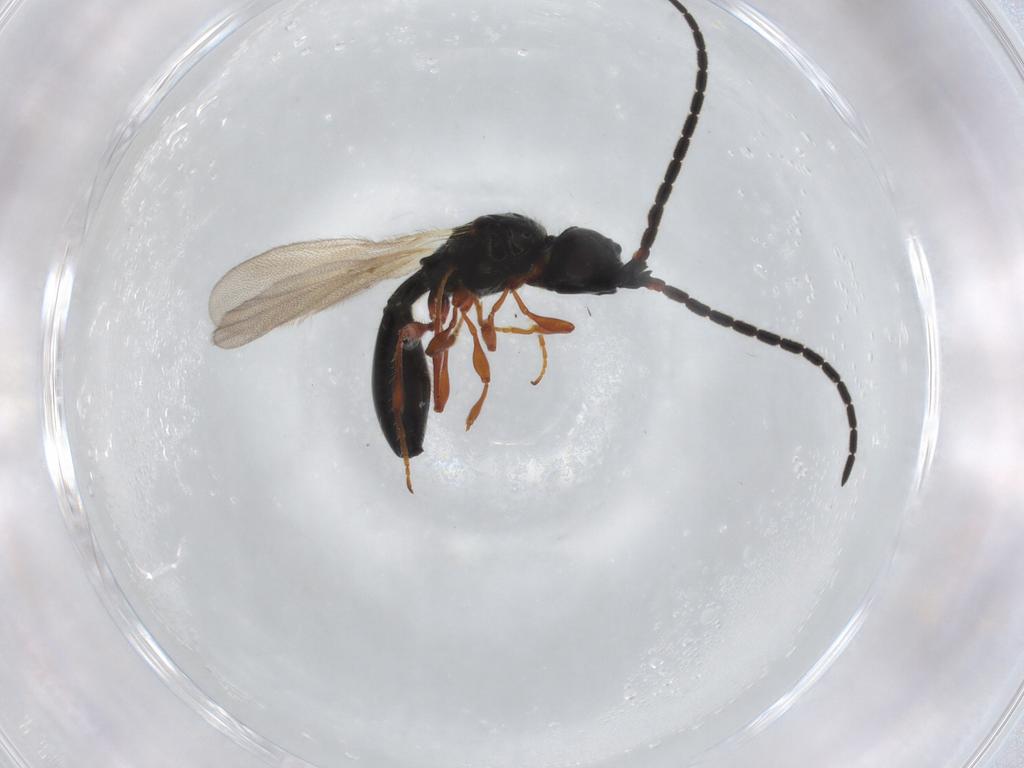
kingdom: Animalia
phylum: Arthropoda
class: Insecta
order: Hymenoptera
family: Diapriidae
